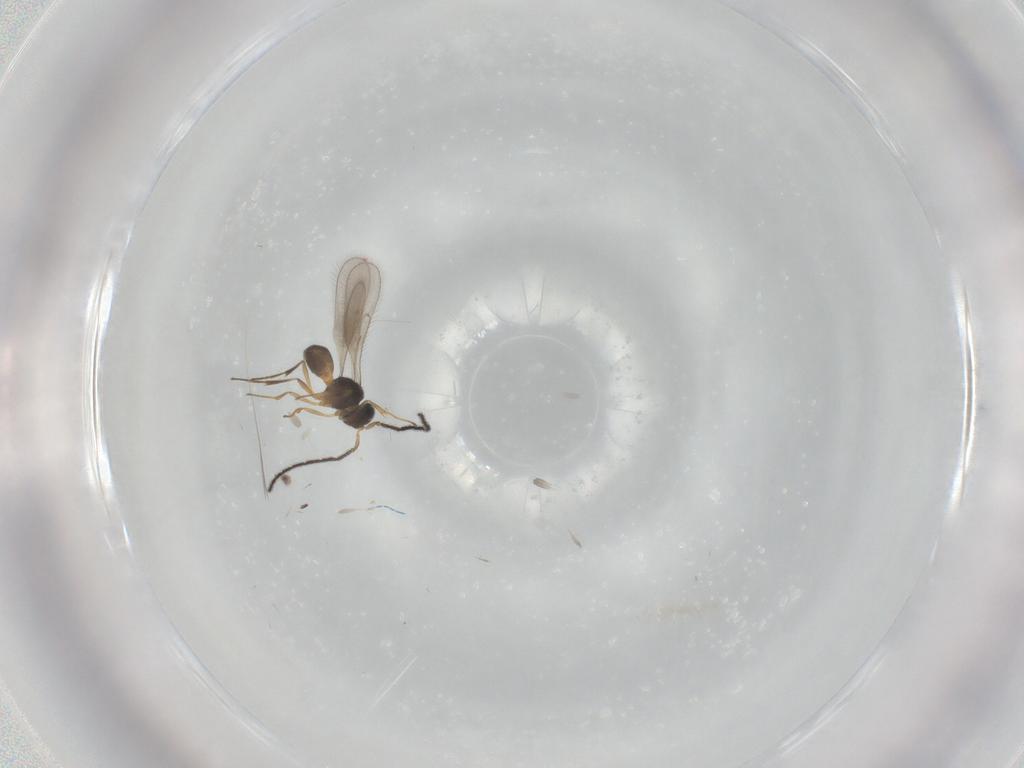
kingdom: Animalia
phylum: Arthropoda
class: Insecta
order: Hymenoptera
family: Scelionidae
